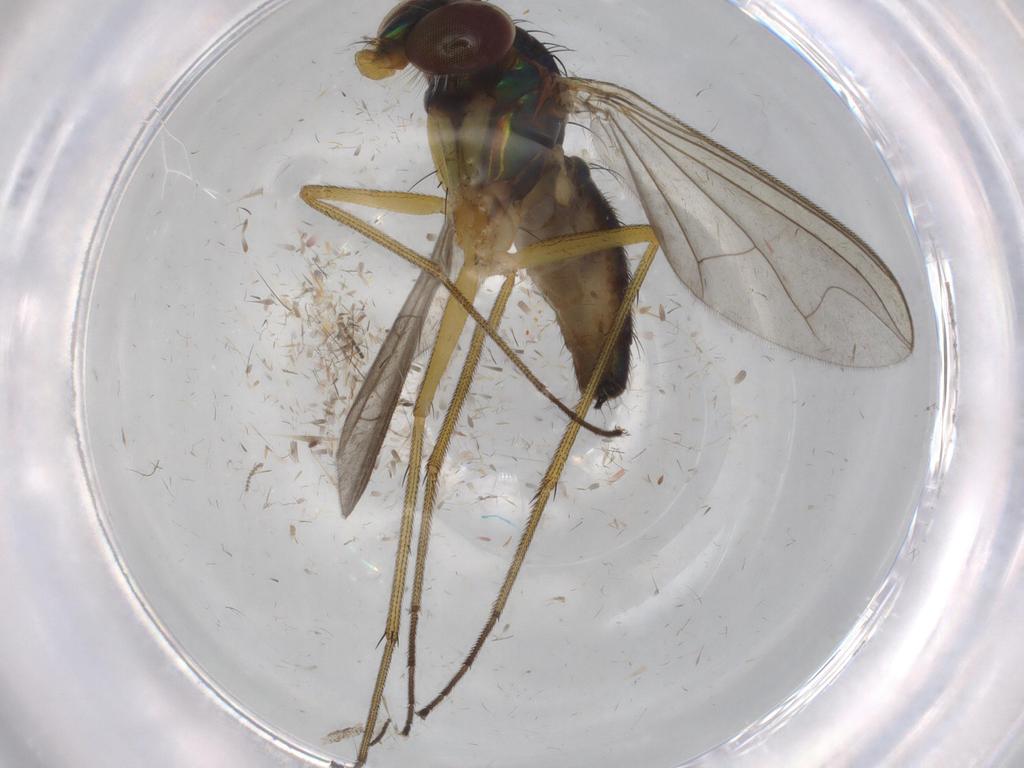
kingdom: Animalia
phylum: Arthropoda
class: Insecta
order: Diptera
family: Dolichopodidae
